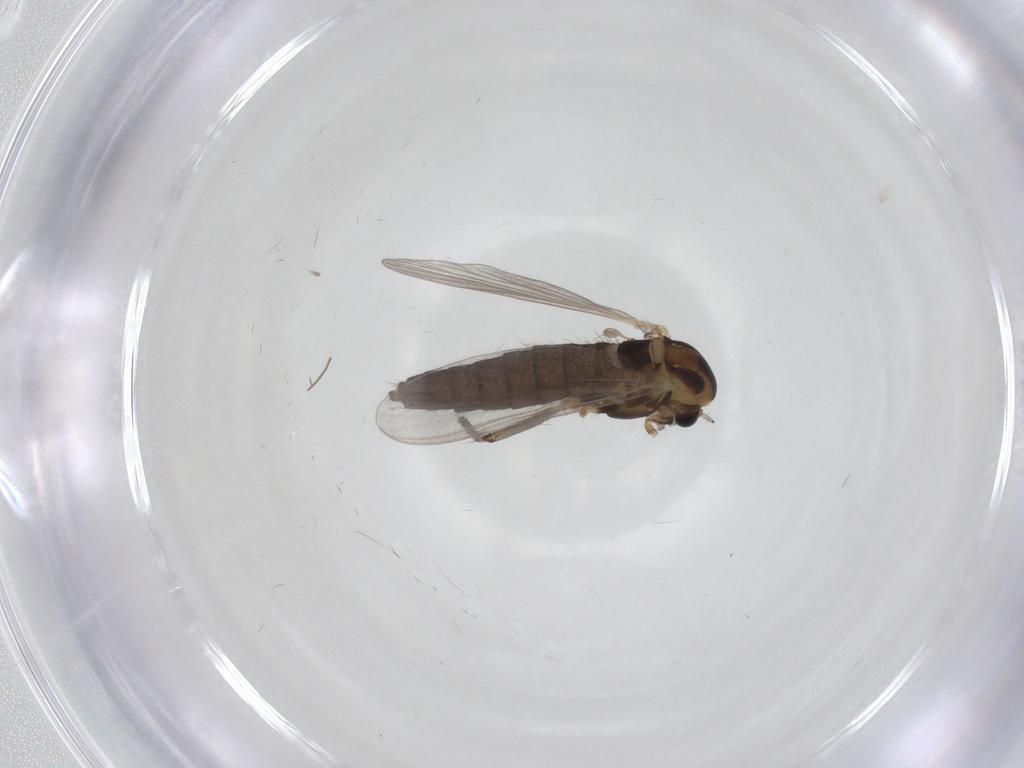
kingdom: Animalia
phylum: Arthropoda
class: Insecta
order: Diptera
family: Chironomidae
